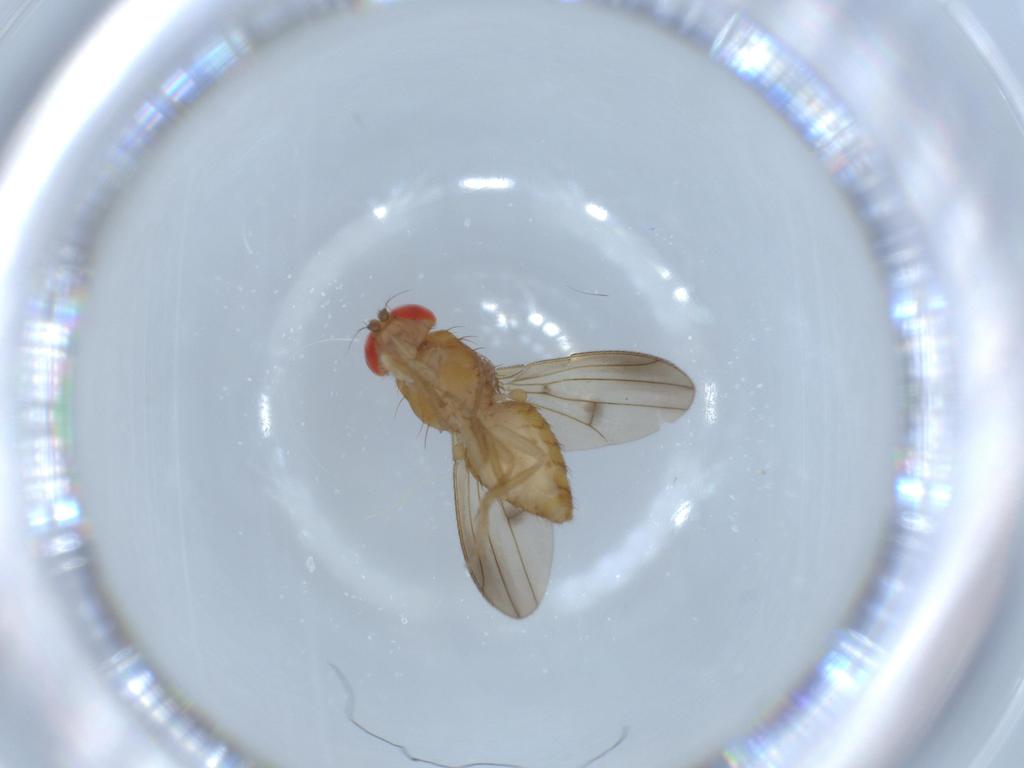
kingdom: Animalia
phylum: Arthropoda
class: Insecta
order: Diptera
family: Drosophilidae
